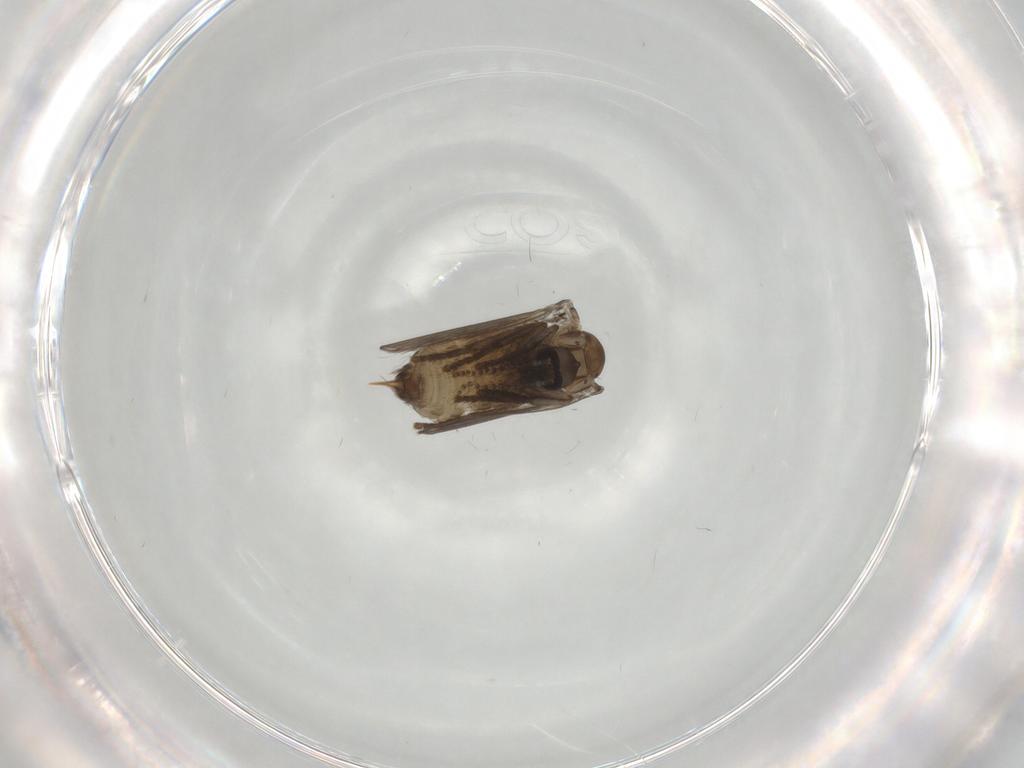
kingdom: Animalia
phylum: Arthropoda
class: Insecta
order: Diptera
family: Psychodidae
